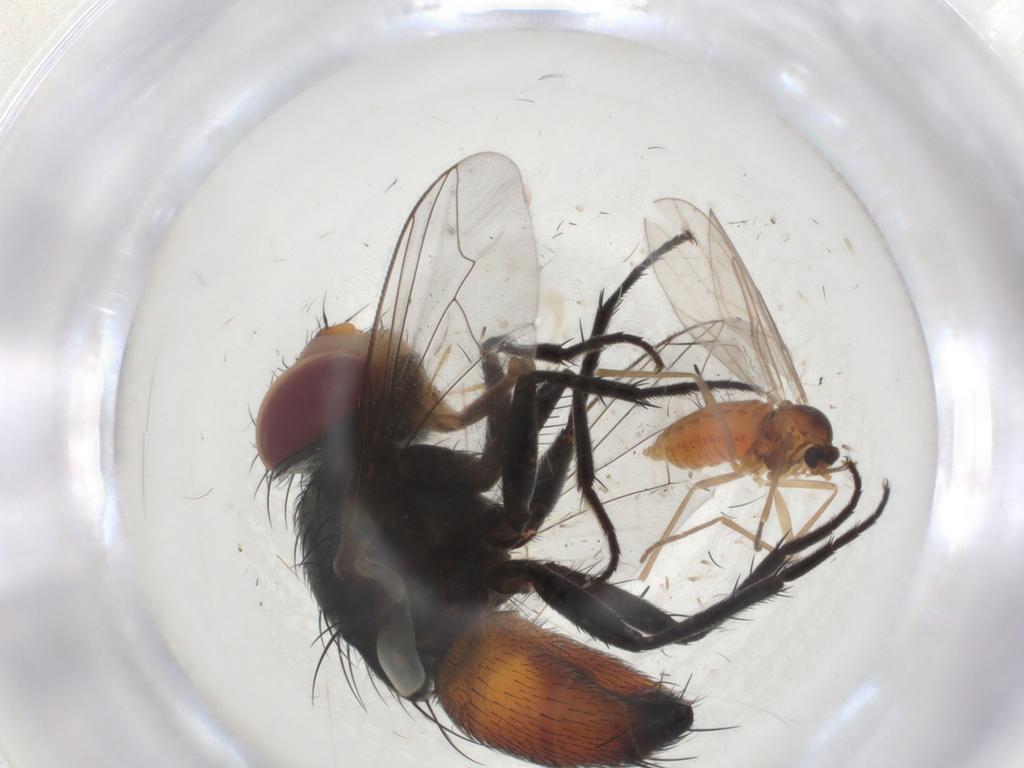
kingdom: Animalia
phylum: Arthropoda
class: Insecta
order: Diptera
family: Sarcophagidae
